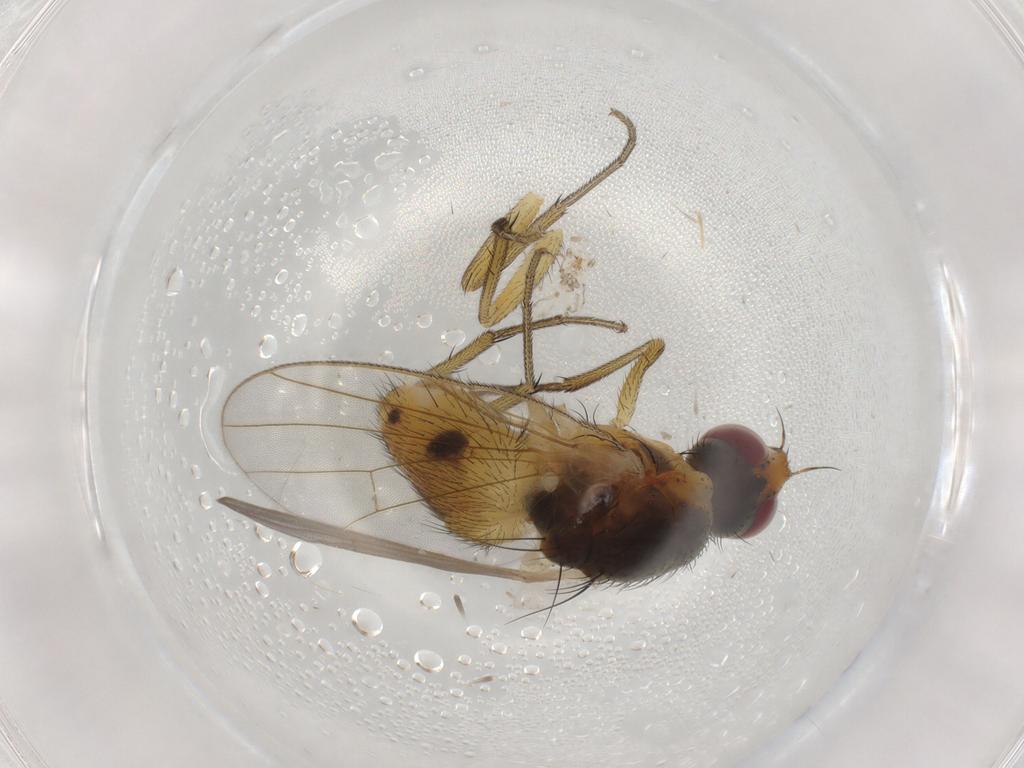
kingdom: Animalia
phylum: Arthropoda
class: Insecta
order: Diptera
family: Muscidae
